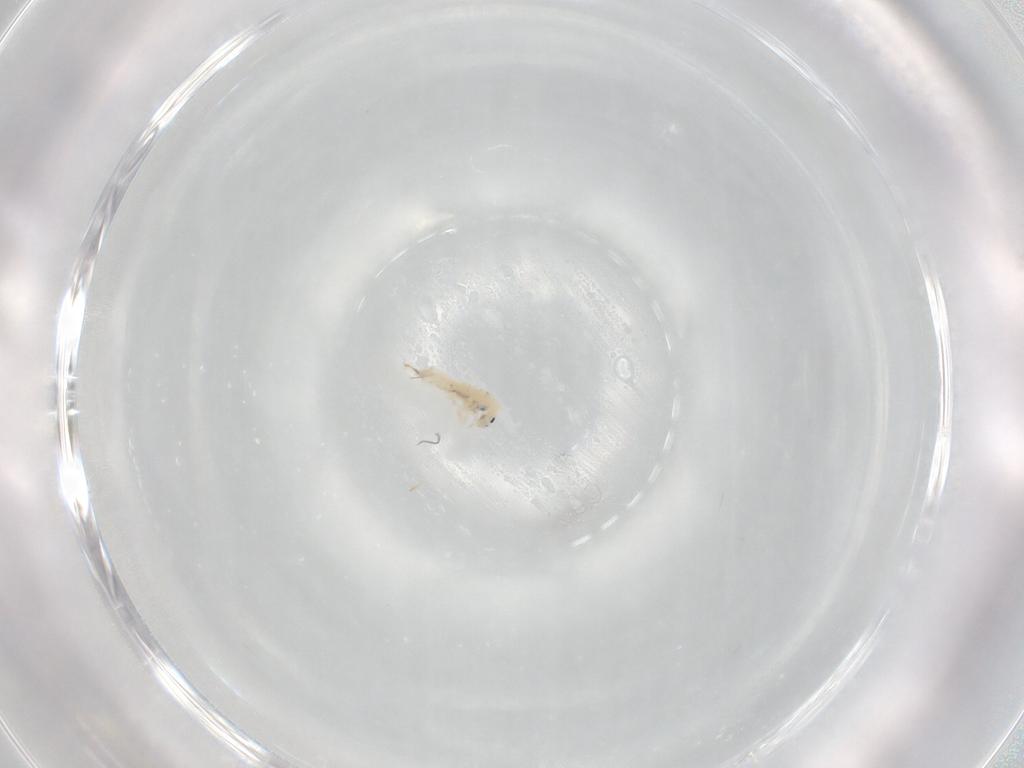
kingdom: Animalia
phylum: Arthropoda
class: Collembola
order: Entomobryomorpha
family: Entomobryidae
